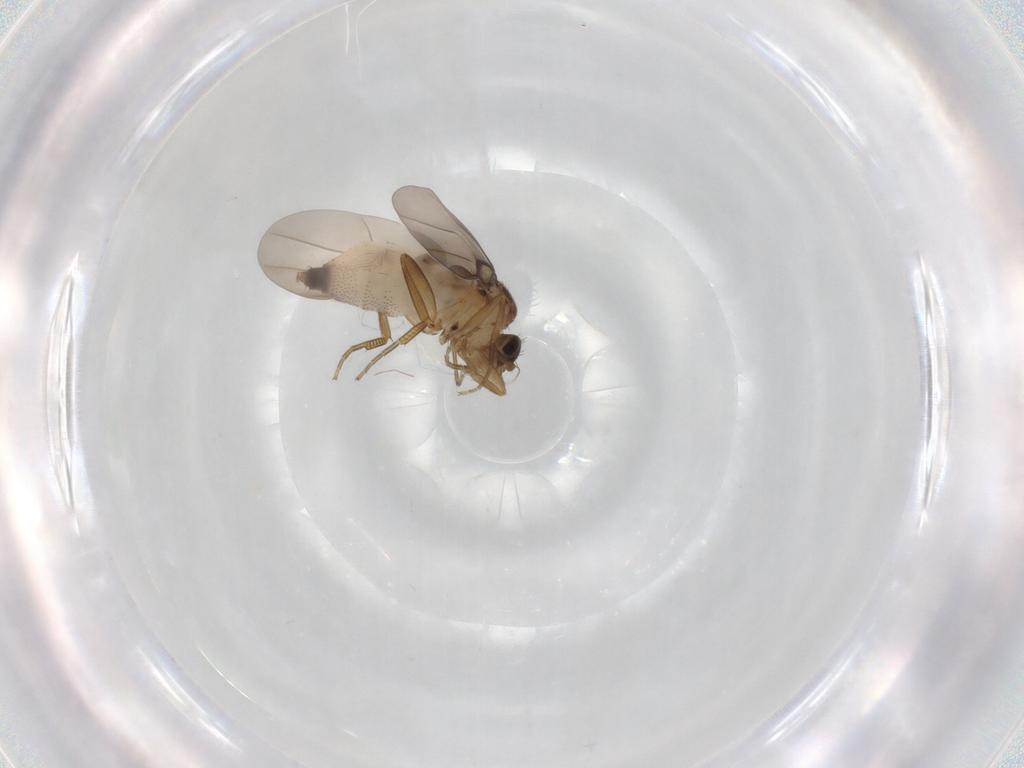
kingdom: Animalia
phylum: Arthropoda
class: Insecta
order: Diptera
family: Phoridae
